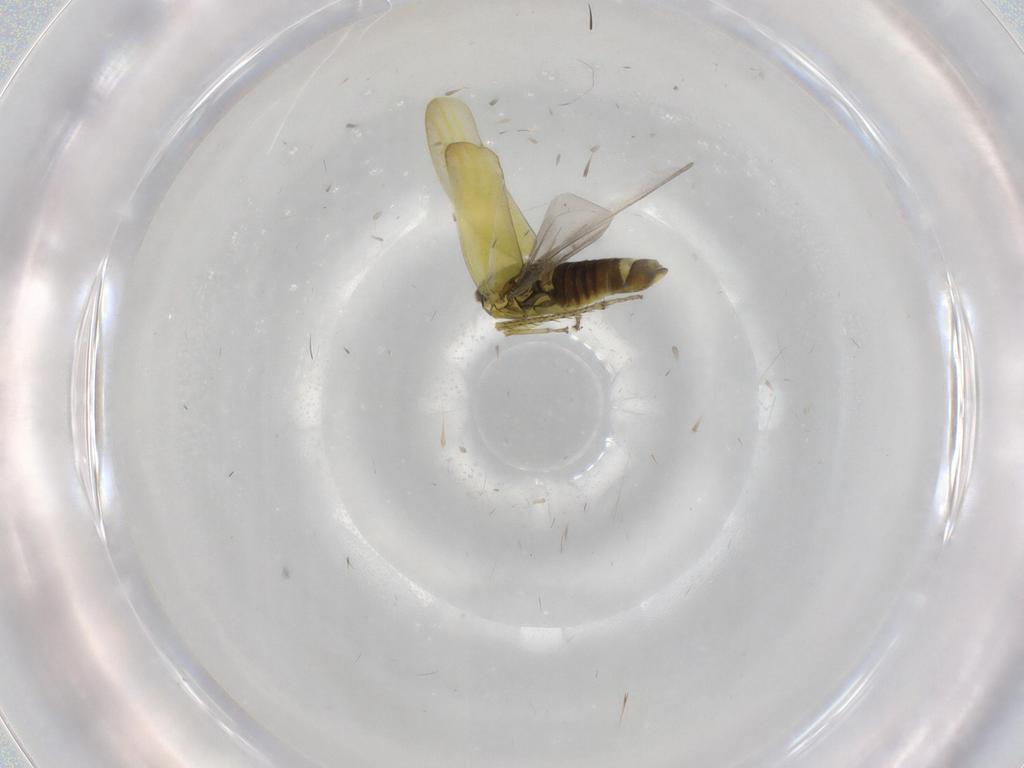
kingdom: Animalia
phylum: Arthropoda
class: Insecta
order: Hemiptera
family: Cicadellidae
